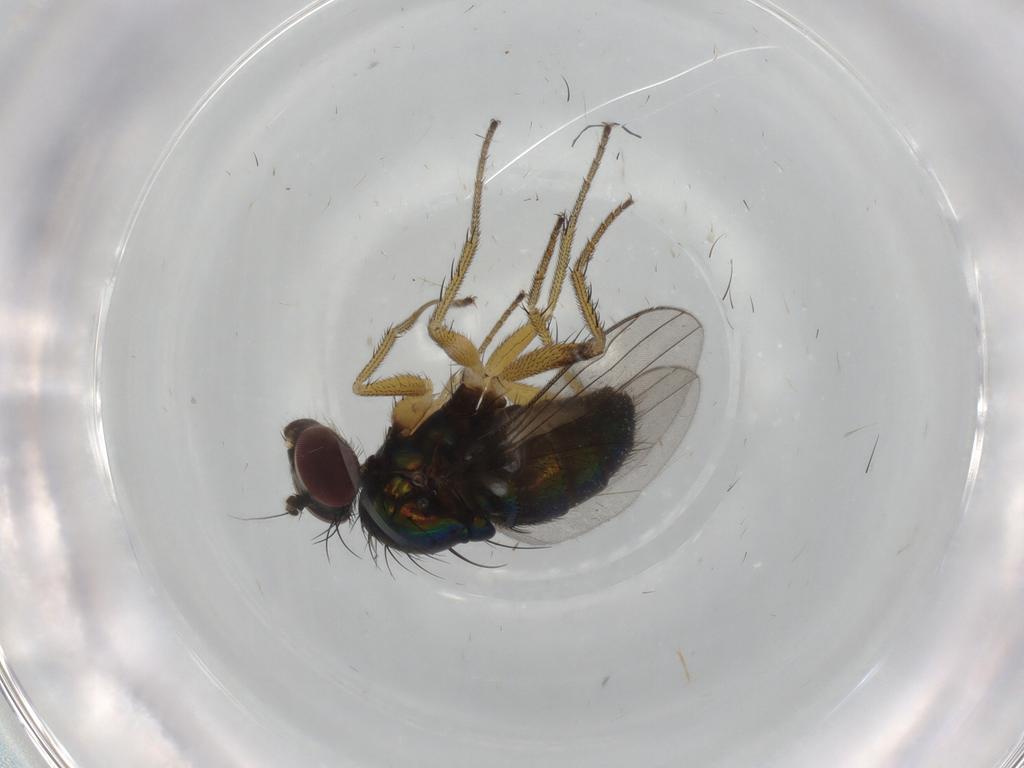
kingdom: Animalia
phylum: Arthropoda
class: Insecta
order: Diptera
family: Dolichopodidae
